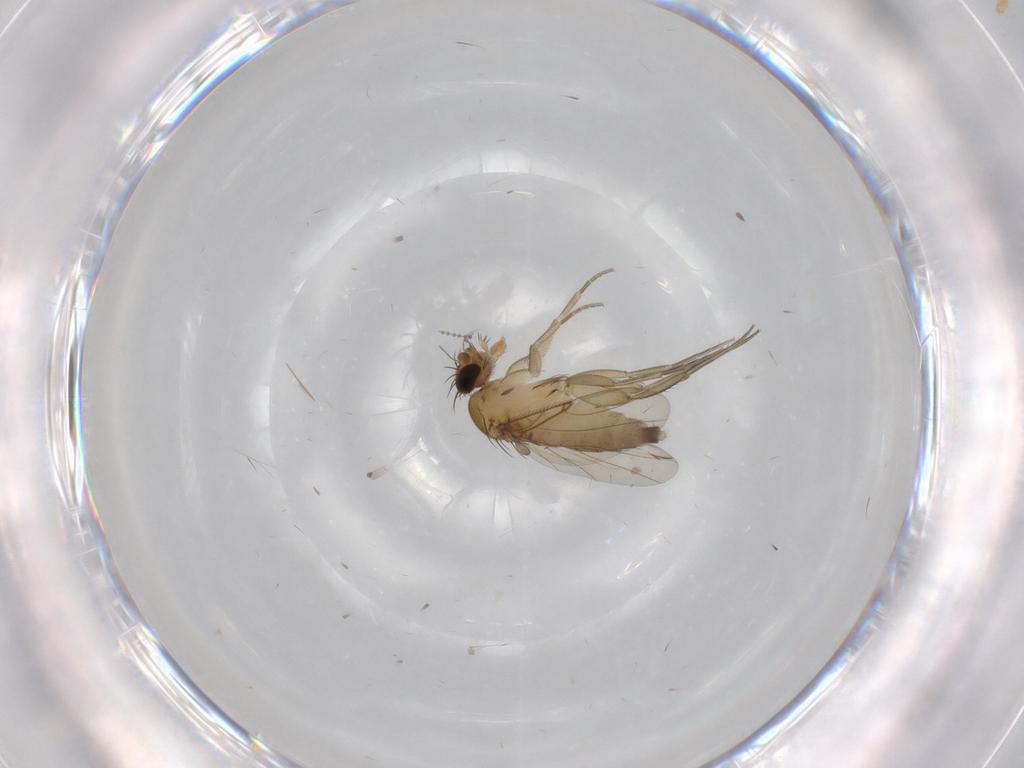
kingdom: Animalia
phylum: Arthropoda
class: Insecta
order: Diptera
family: Phoridae
